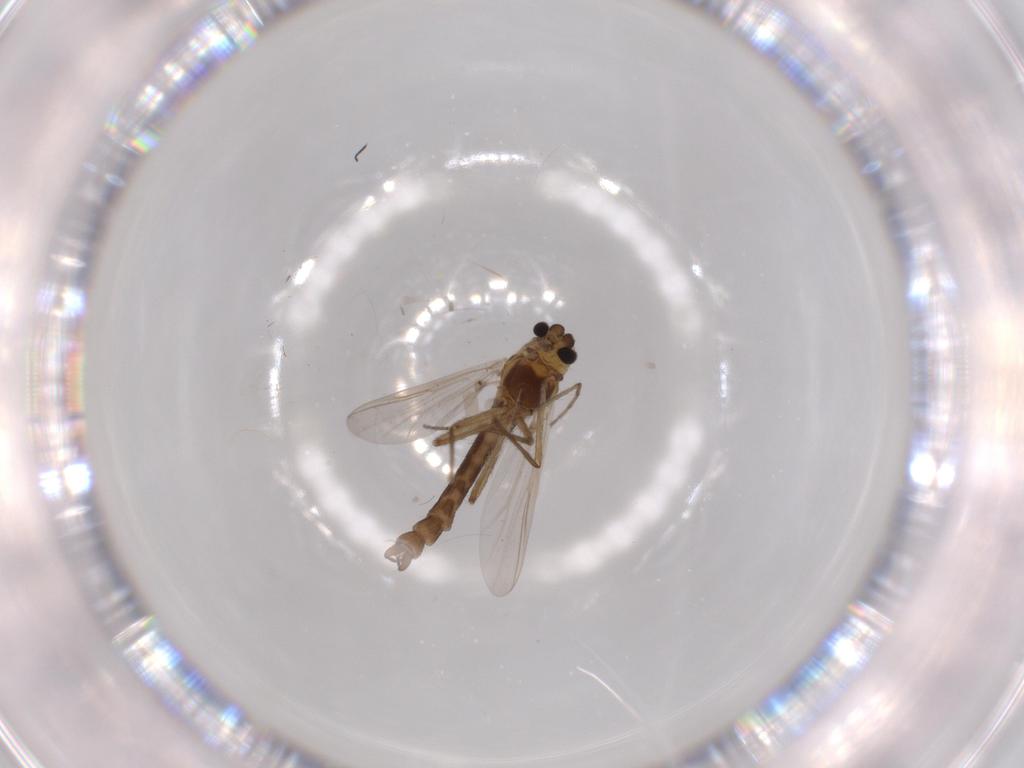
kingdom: Animalia
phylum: Arthropoda
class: Insecta
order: Diptera
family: Chironomidae
